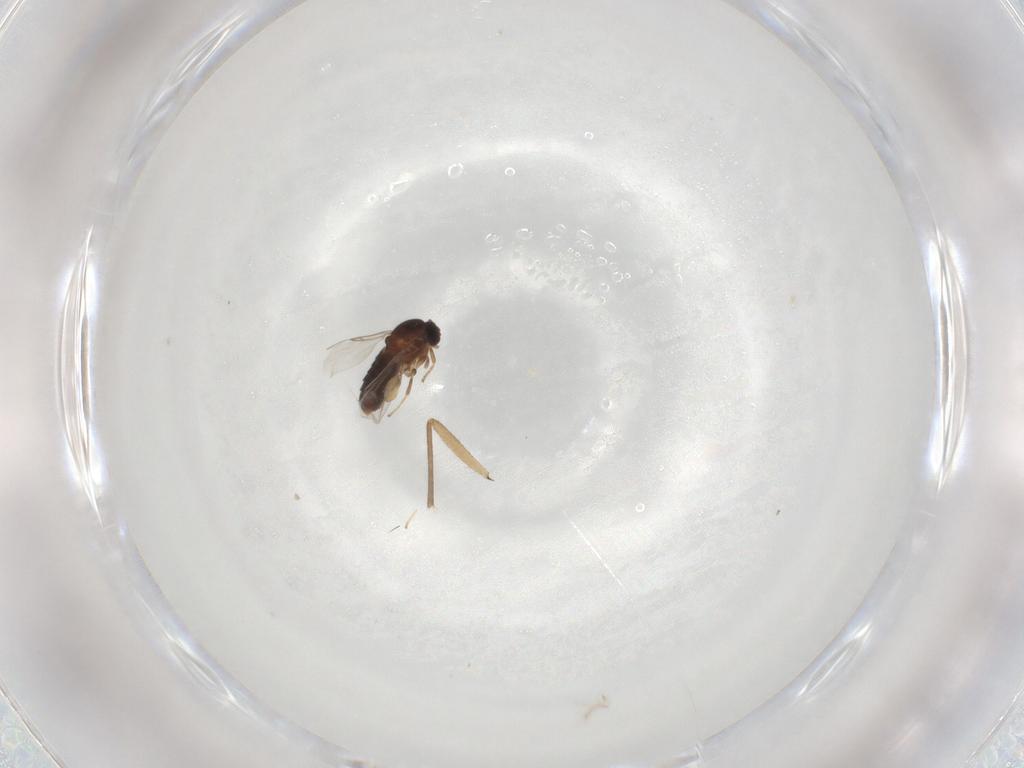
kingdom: Animalia
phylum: Arthropoda
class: Insecta
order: Diptera
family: Scatopsidae
